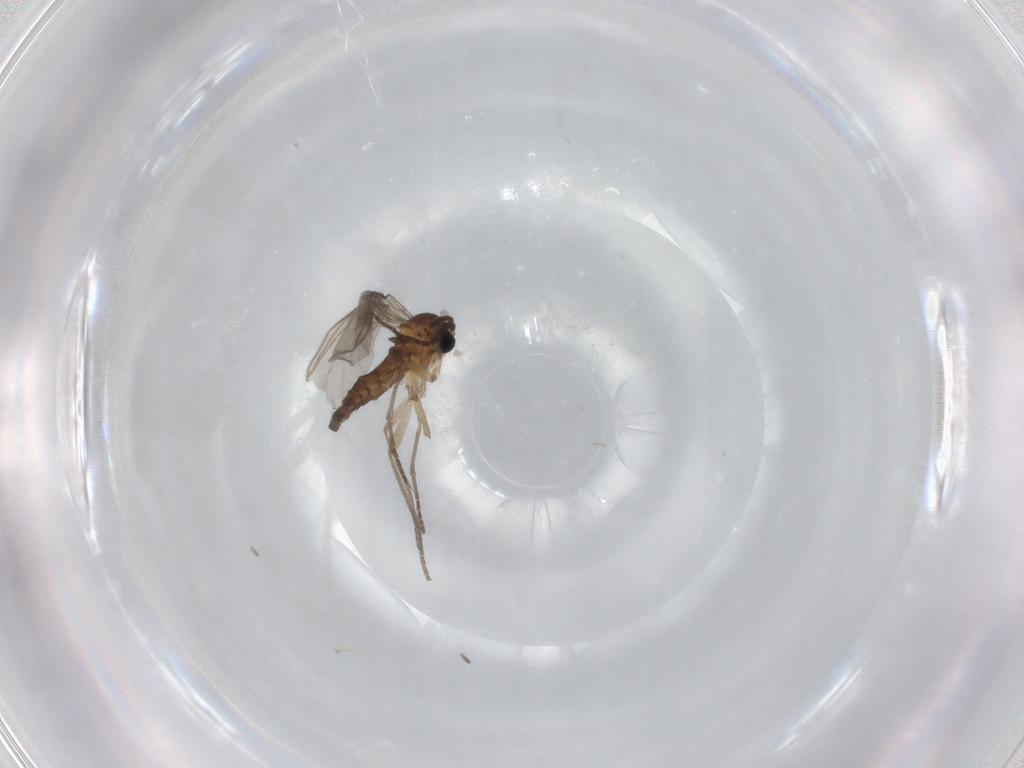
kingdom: Animalia
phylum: Arthropoda
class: Insecta
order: Diptera
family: Sciaridae
